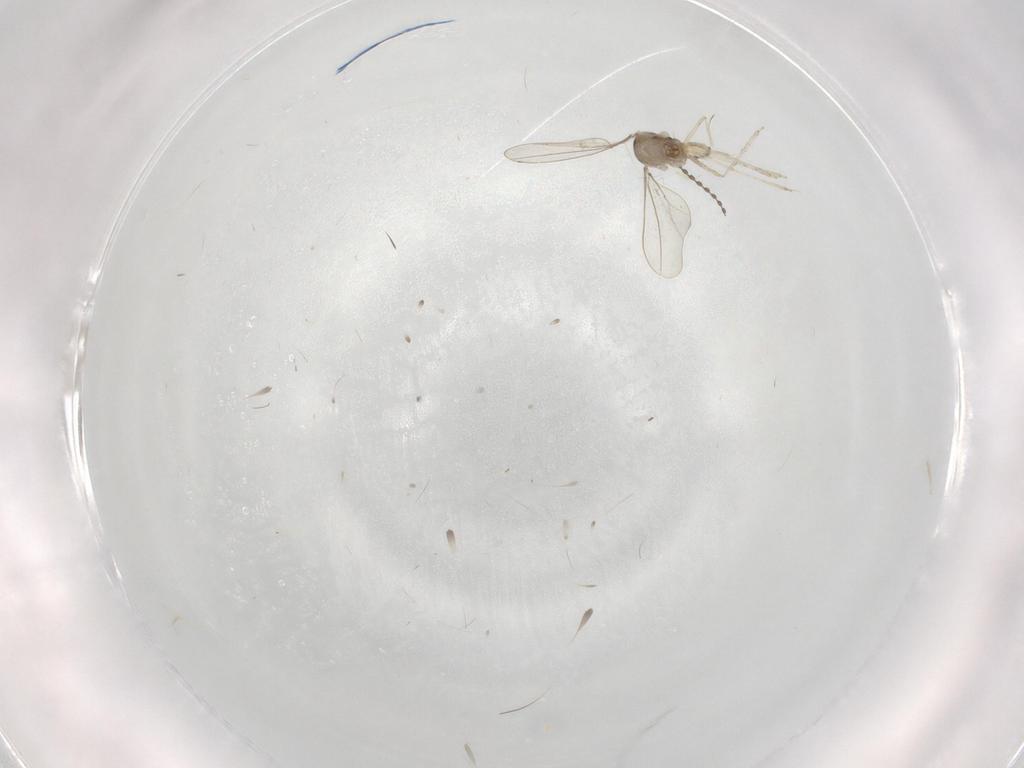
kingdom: Animalia
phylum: Arthropoda
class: Insecta
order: Diptera
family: Cecidomyiidae
